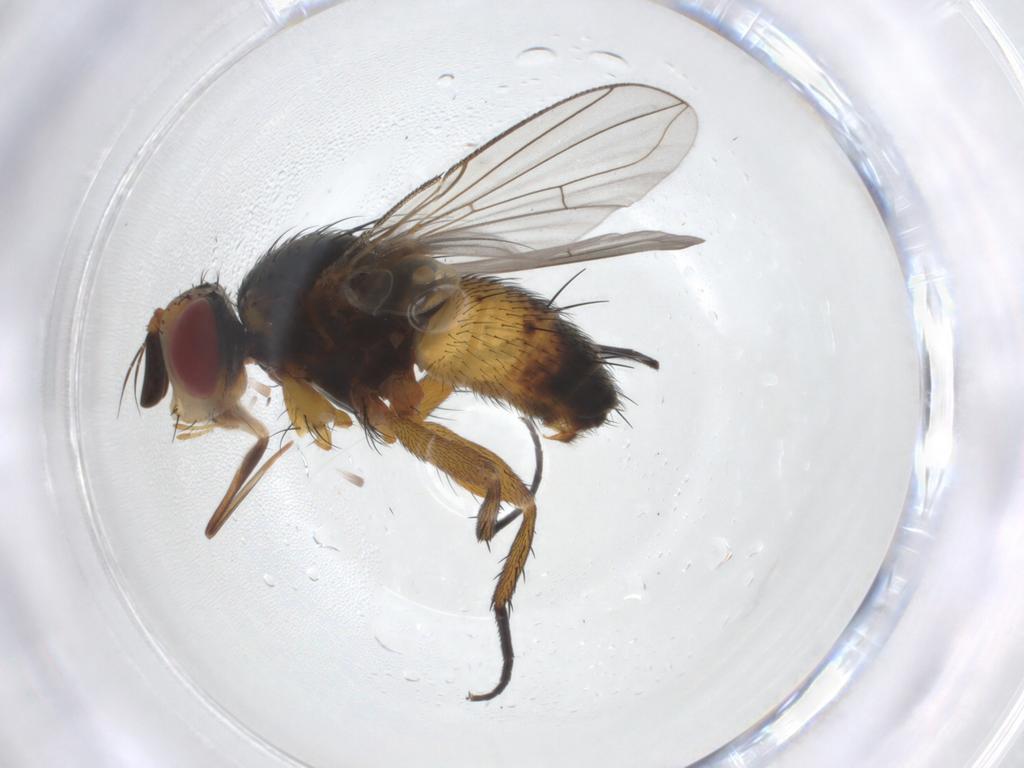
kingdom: Animalia
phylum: Arthropoda
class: Insecta
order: Diptera
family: Tachinidae
